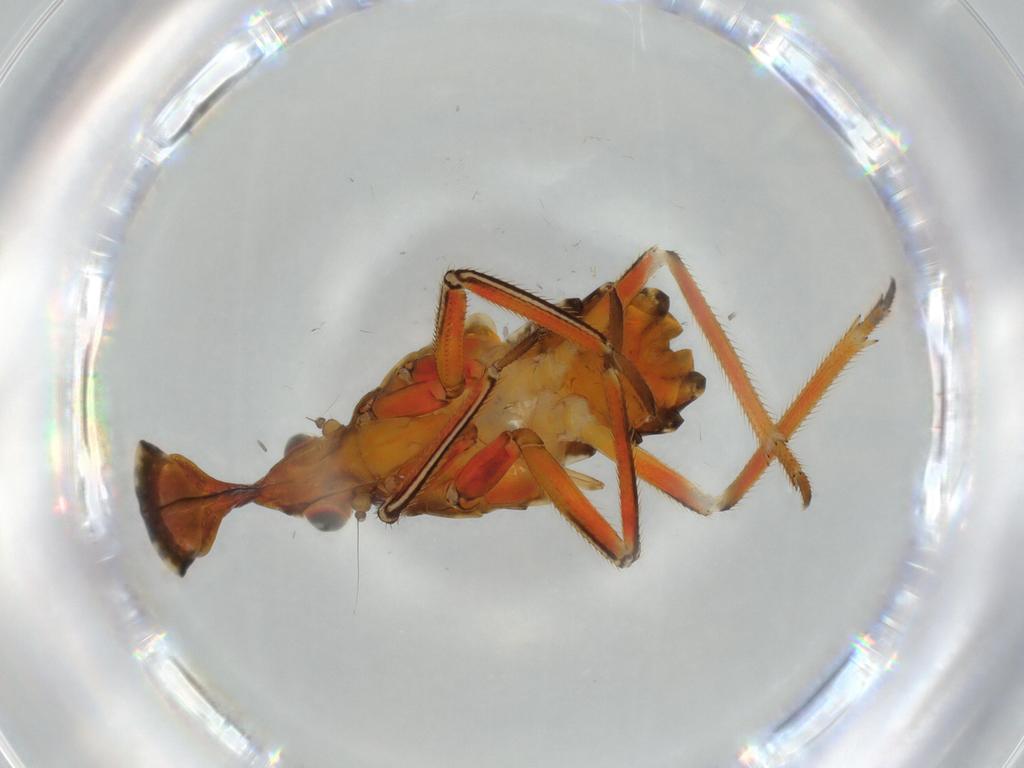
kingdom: Animalia
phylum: Arthropoda
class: Insecta
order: Hemiptera
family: Fulgoridae
